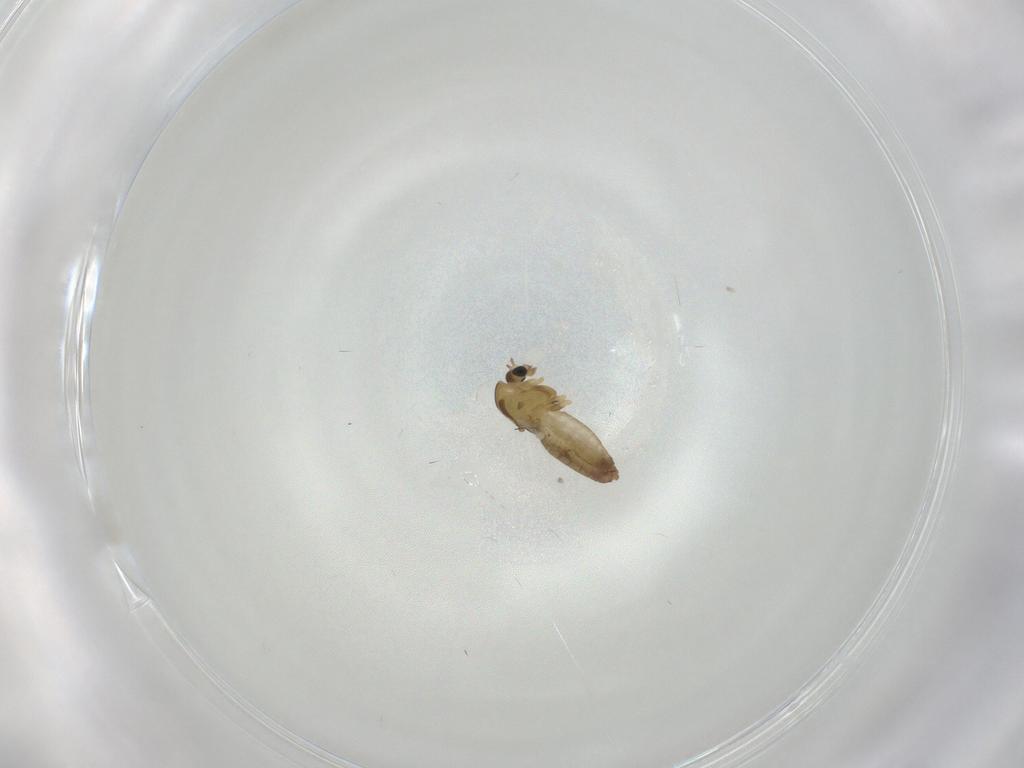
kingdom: Animalia
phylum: Arthropoda
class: Insecta
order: Diptera
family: Chironomidae
